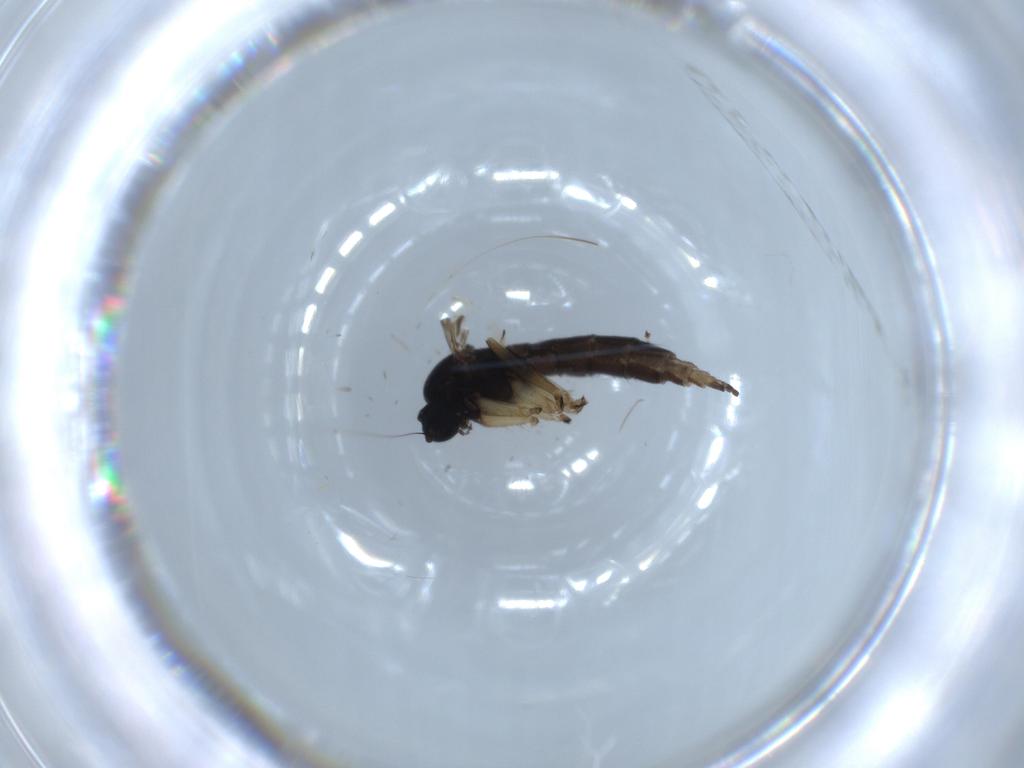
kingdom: Animalia
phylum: Arthropoda
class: Insecta
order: Diptera
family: Sciaridae
